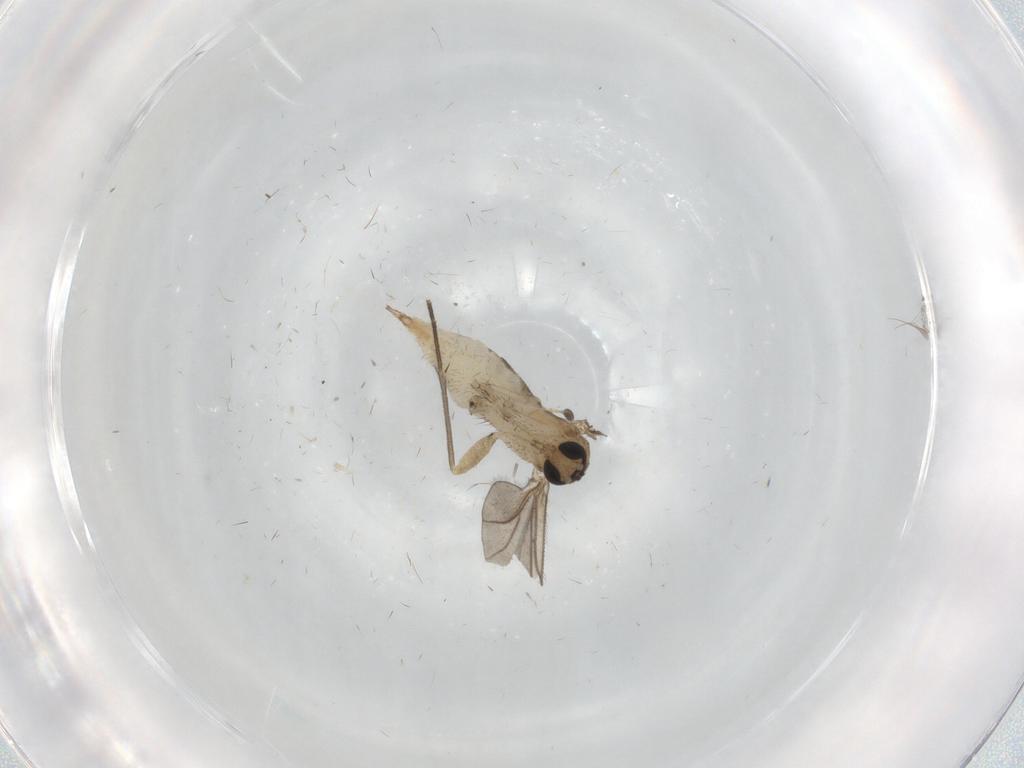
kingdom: Animalia
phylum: Arthropoda
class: Insecta
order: Diptera
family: Sciaridae
